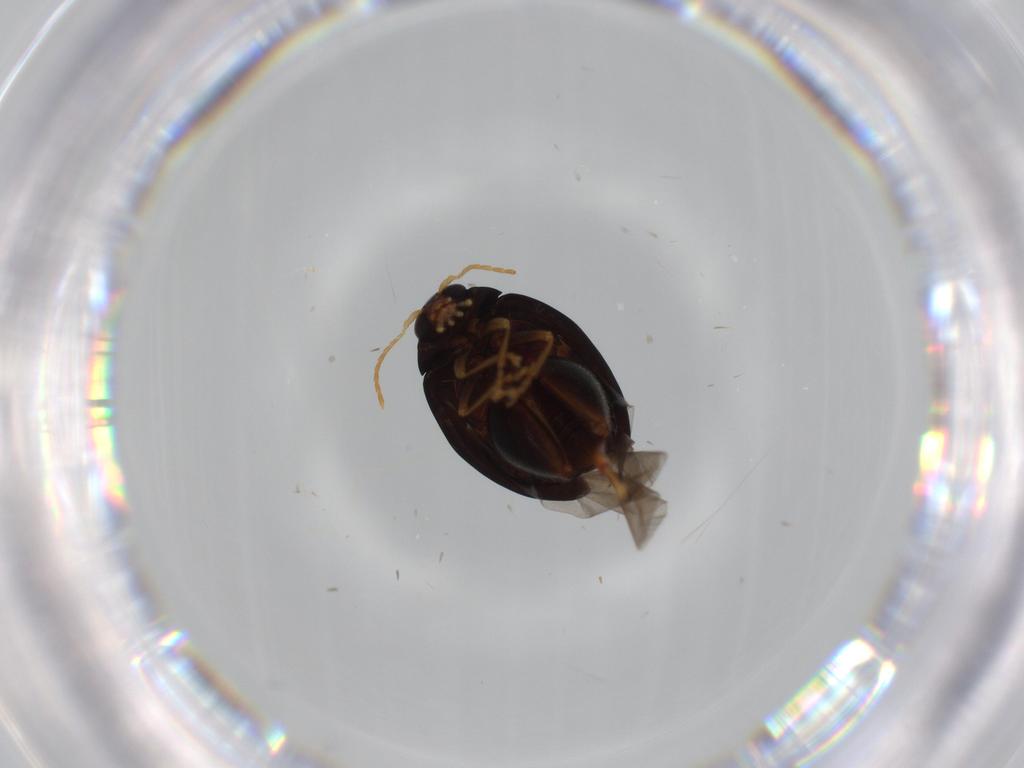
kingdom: Animalia
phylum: Arthropoda
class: Insecta
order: Coleoptera
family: Chrysomelidae
